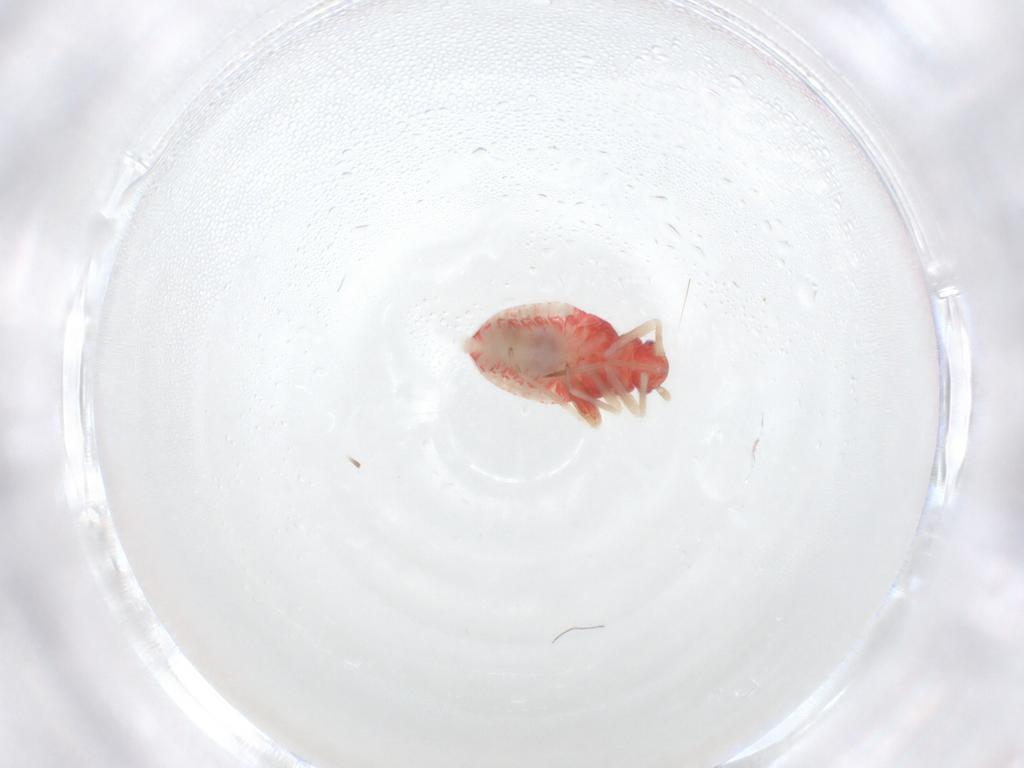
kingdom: Animalia
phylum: Arthropoda
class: Insecta
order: Hemiptera
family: Miridae
